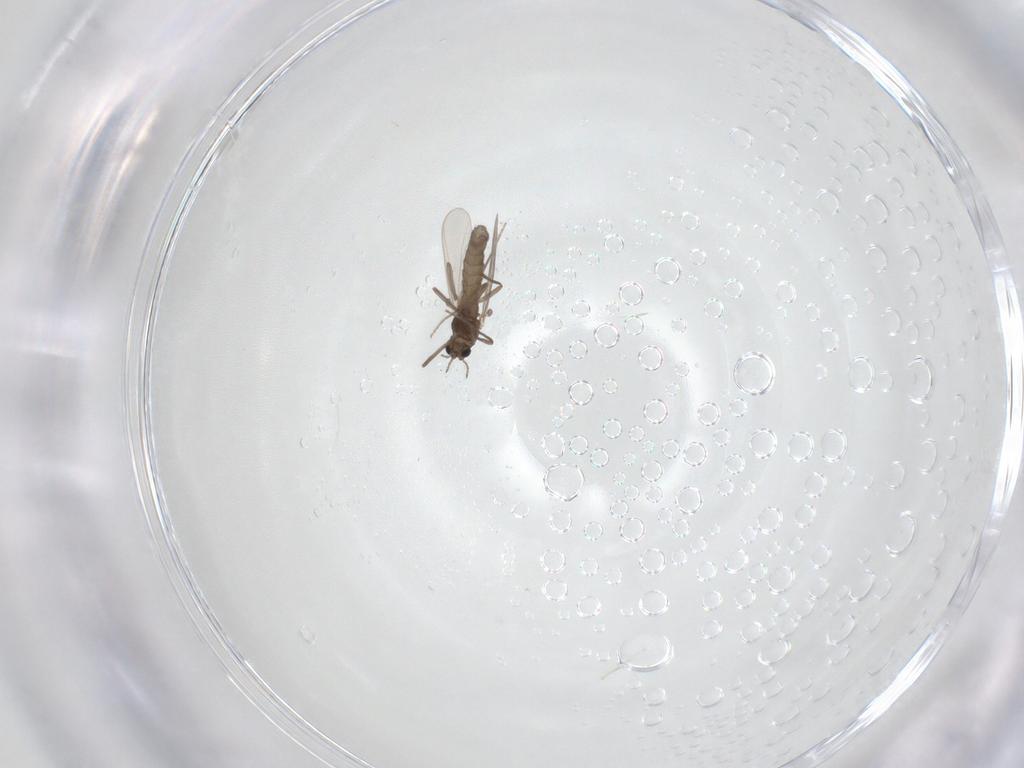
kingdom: Animalia
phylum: Arthropoda
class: Insecta
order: Diptera
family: Chironomidae
